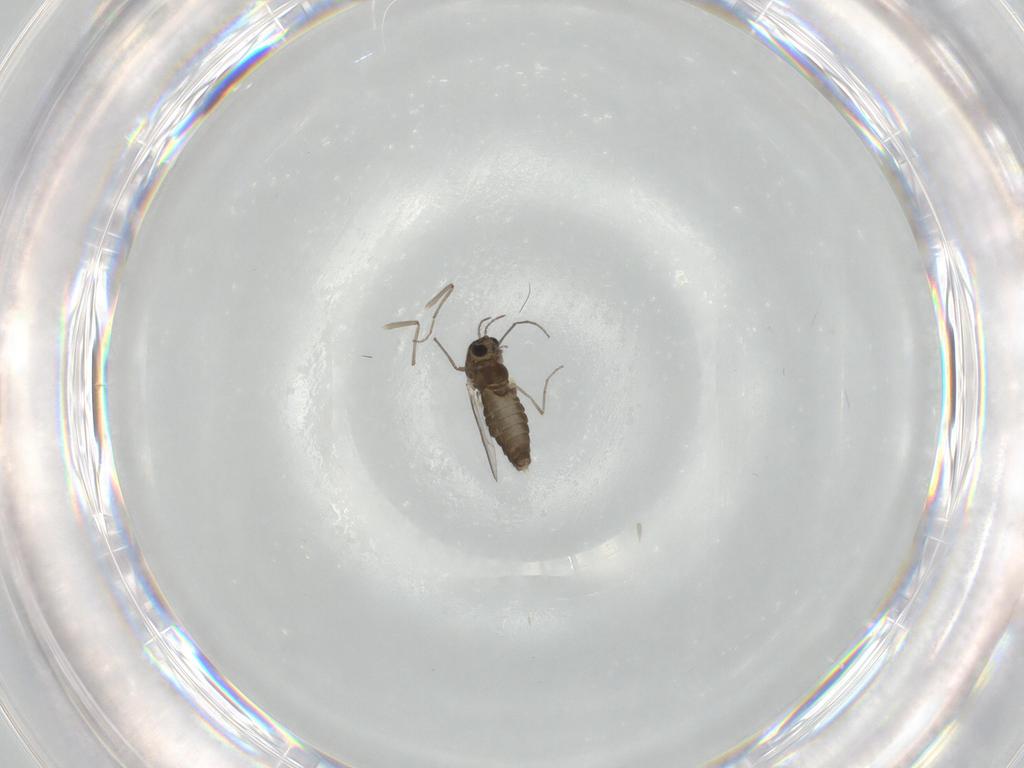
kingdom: Animalia
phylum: Arthropoda
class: Insecta
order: Diptera
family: Chironomidae
